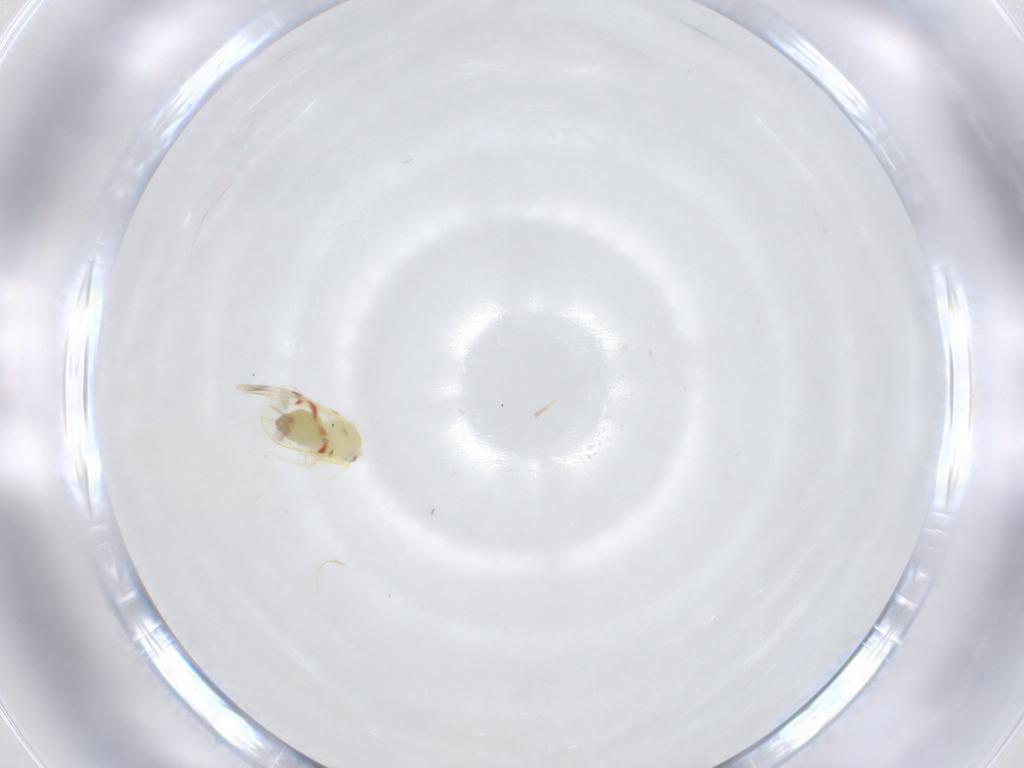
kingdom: Animalia
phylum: Arthropoda
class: Insecta
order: Hemiptera
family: Aleyrodidae
